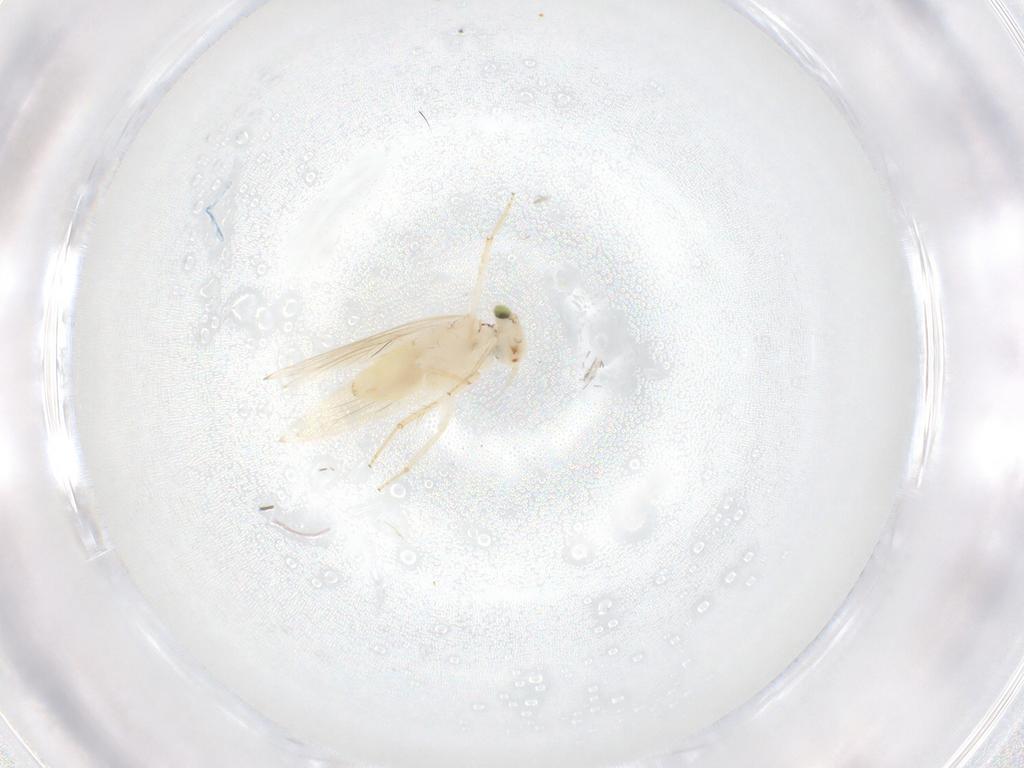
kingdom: Animalia
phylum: Arthropoda
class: Insecta
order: Psocodea
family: Lepidopsocidae
